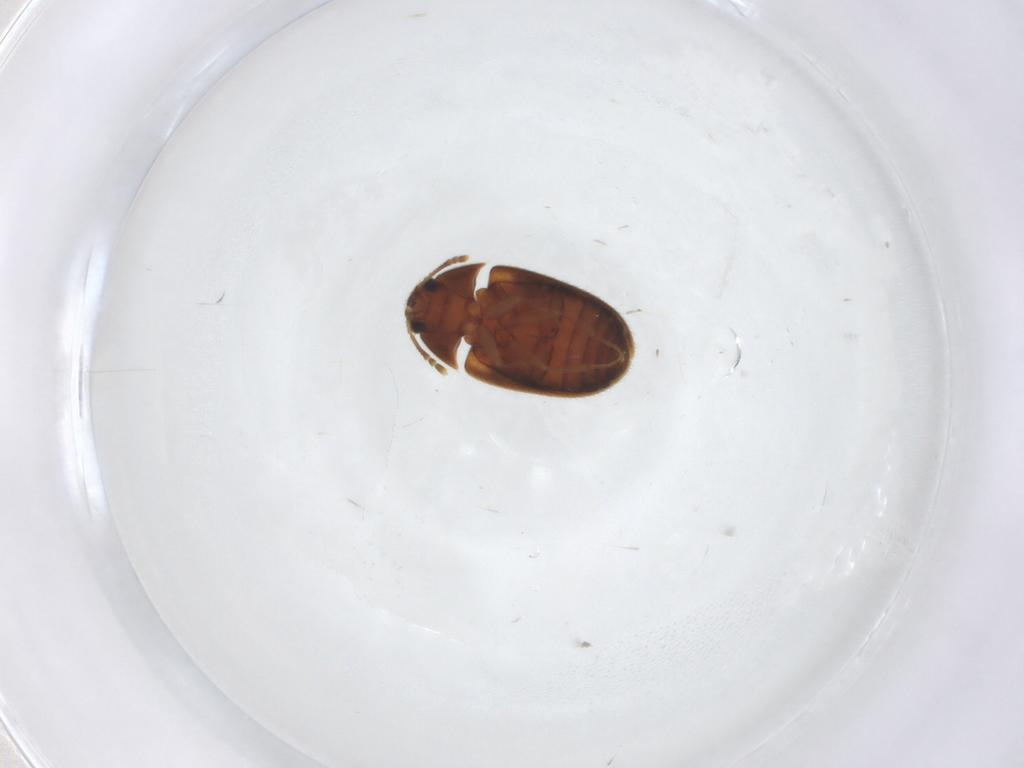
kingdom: Animalia
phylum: Arthropoda
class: Insecta
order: Coleoptera
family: Mycetophagidae
